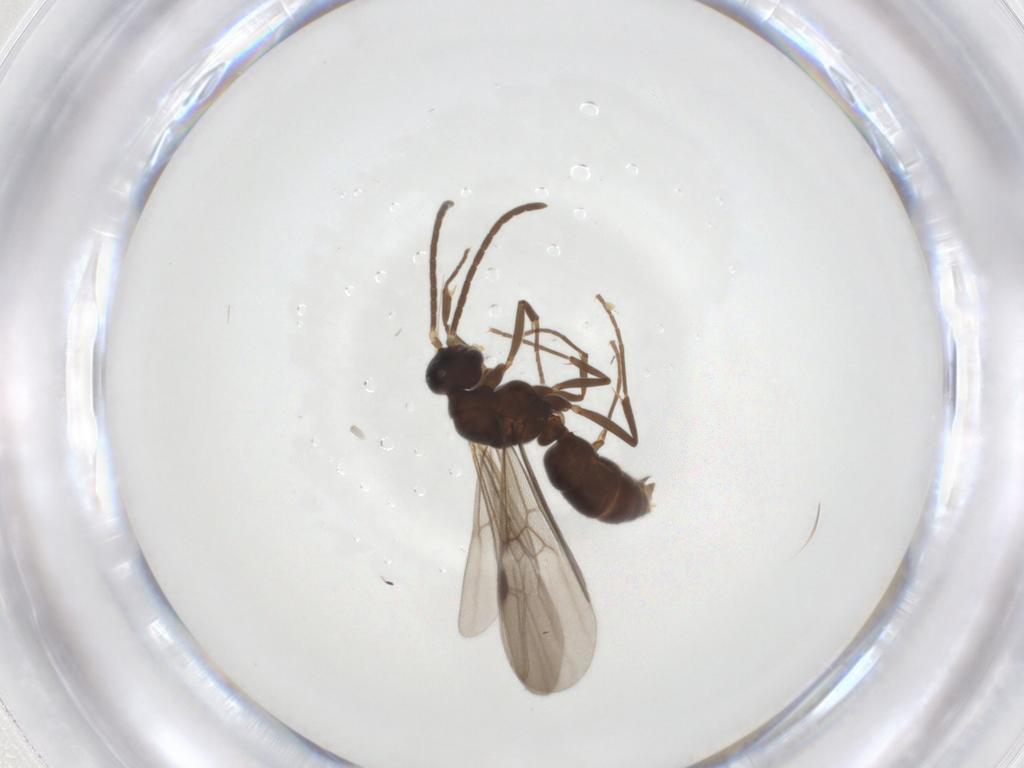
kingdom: Animalia
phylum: Arthropoda
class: Insecta
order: Hymenoptera
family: Formicidae
